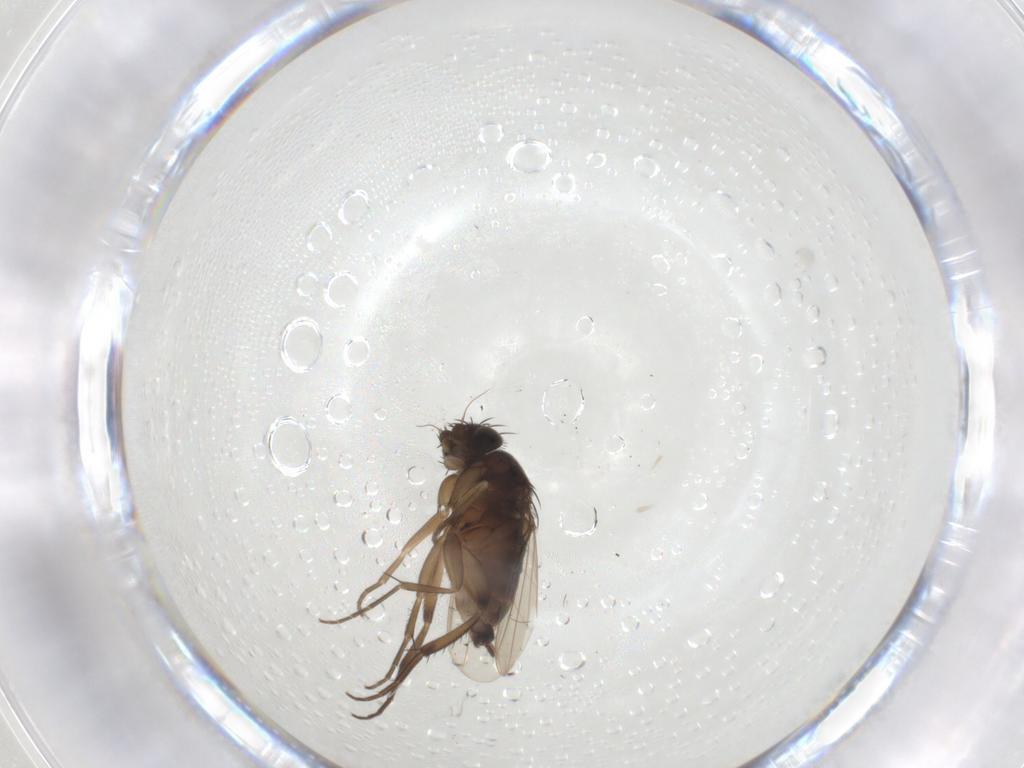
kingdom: Animalia
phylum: Arthropoda
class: Insecta
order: Diptera
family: Phoridae
